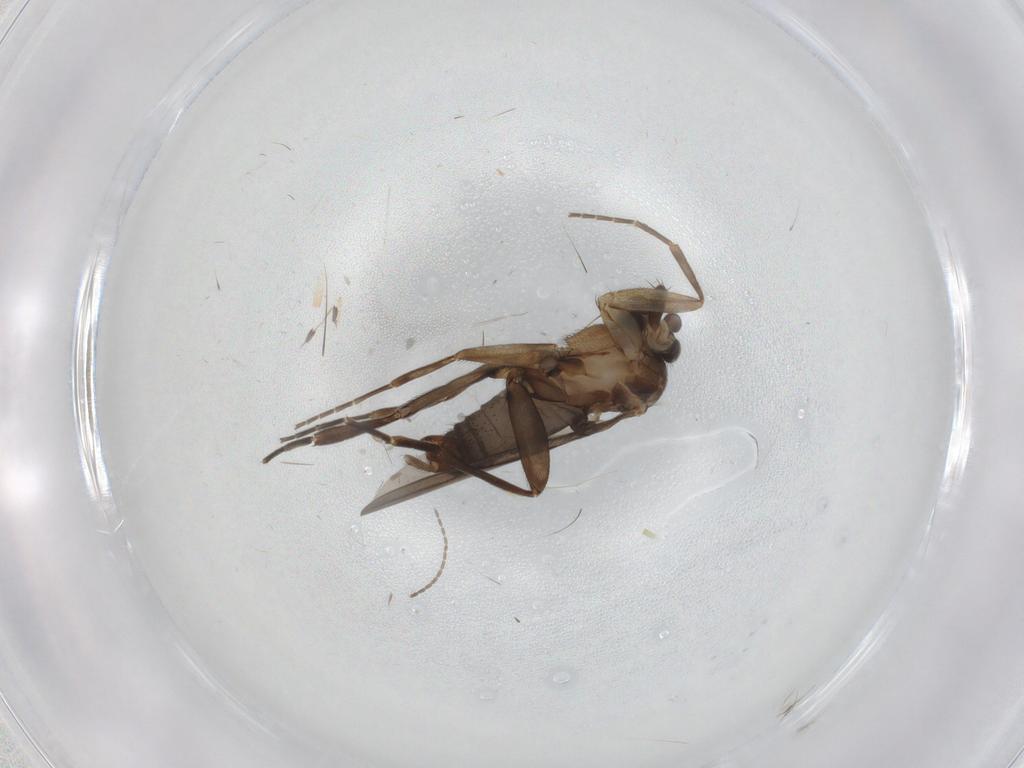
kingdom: Animalia
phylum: Arthropoda
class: Insecta
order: Diptera
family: Phoridae
